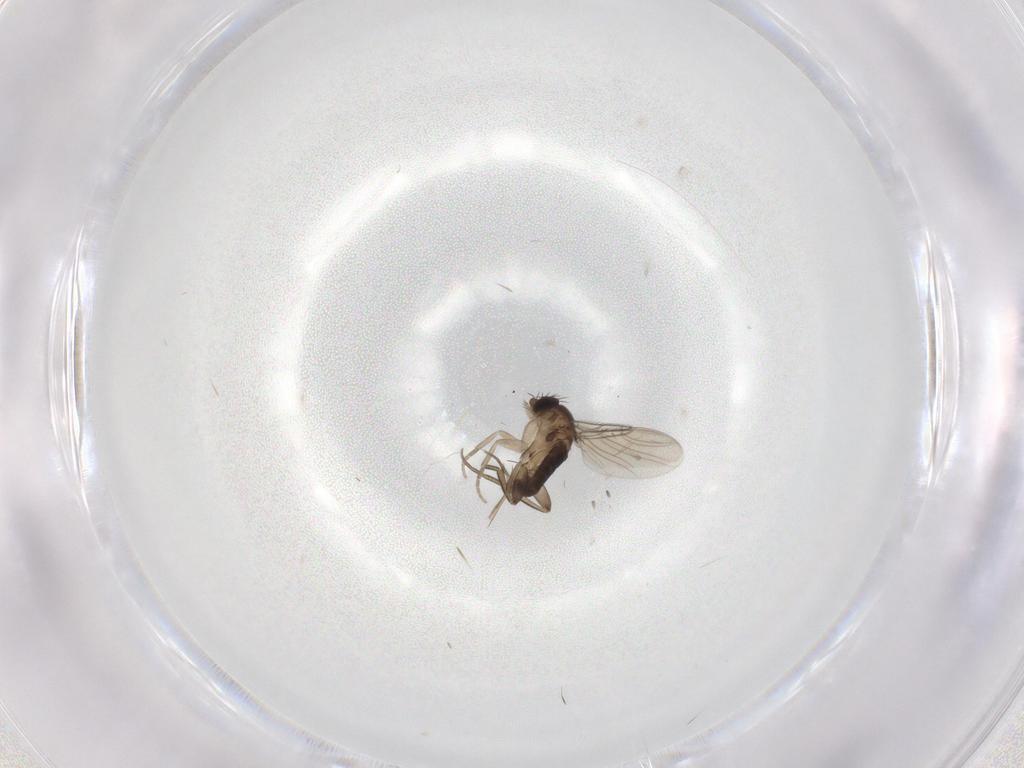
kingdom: Animalia
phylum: Arthropoda
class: Insecta
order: Diptera
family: Phoridae
